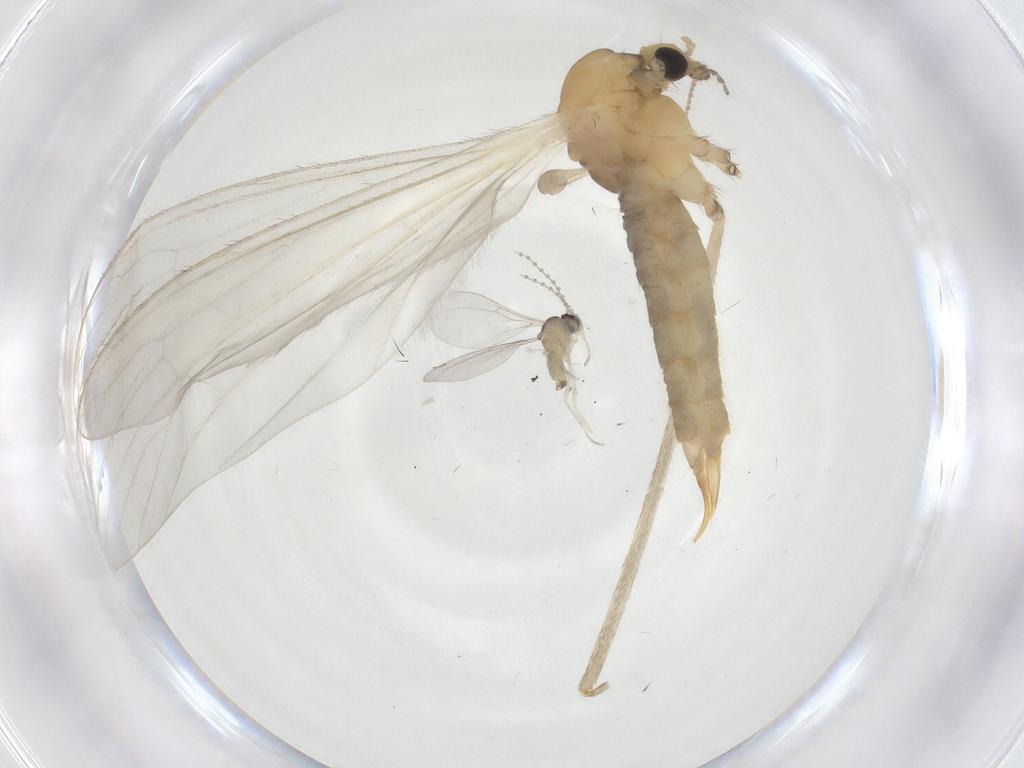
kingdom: Animalia
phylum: Arthropoda
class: Insecta
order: Diptera
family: Limoniidae
